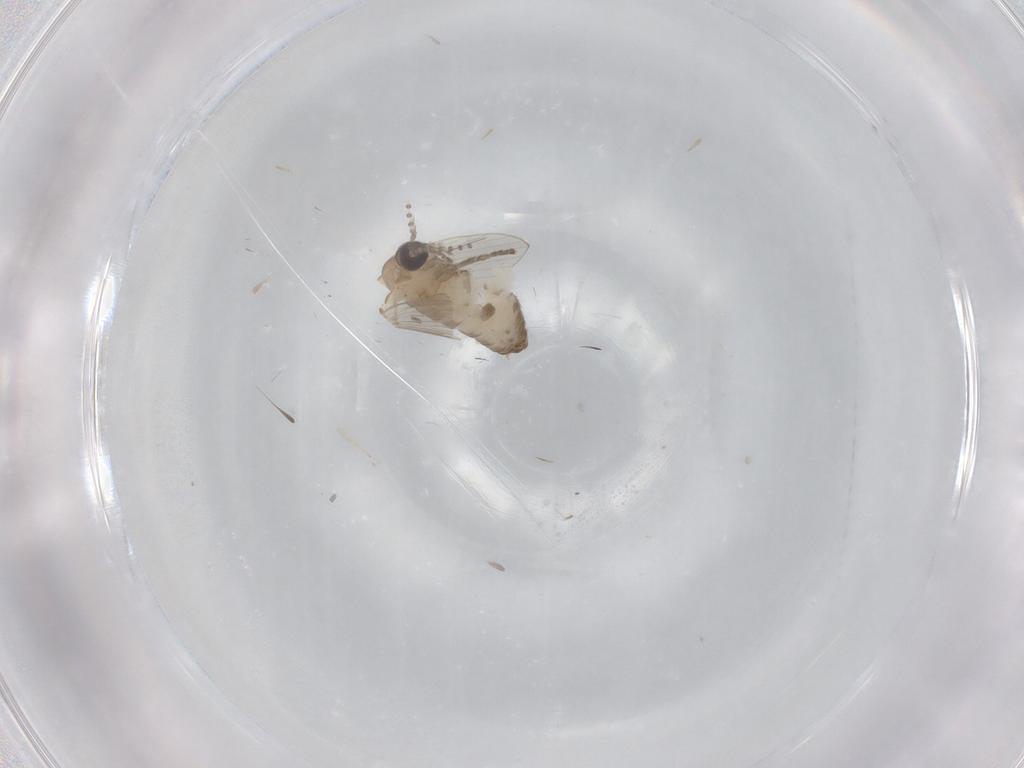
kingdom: Animalia
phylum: Arthropoda
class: Insecta
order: Diptera
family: Psychodidae
